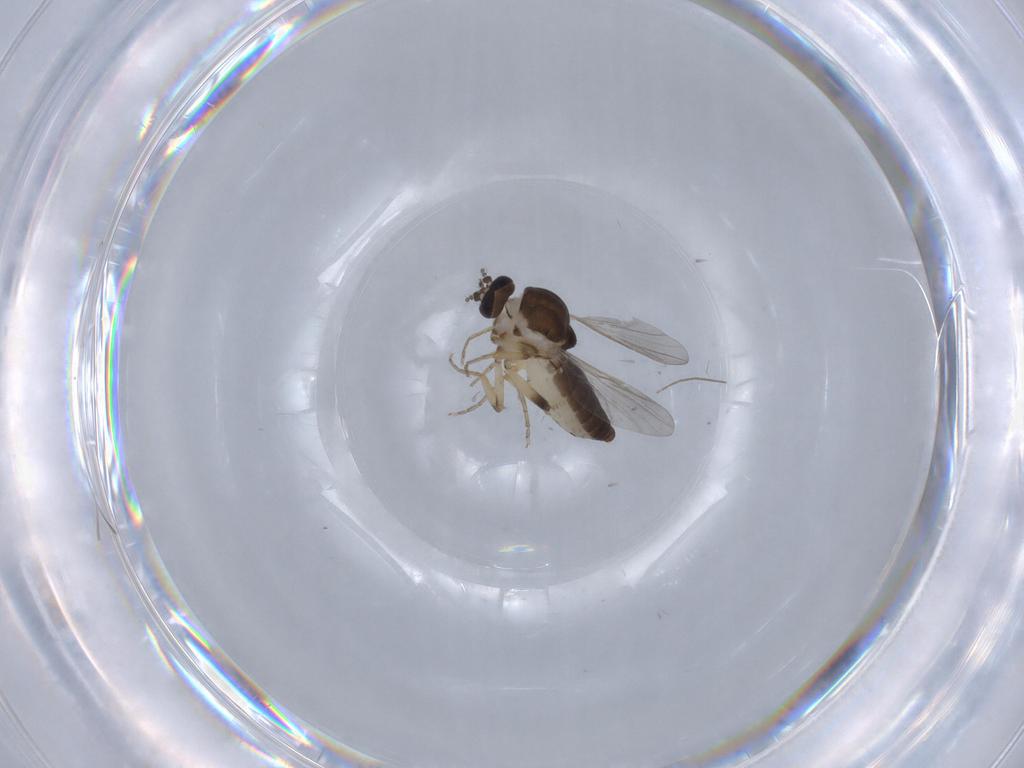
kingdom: Animalia
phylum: Arthropoda
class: Insecta
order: Diptera
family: Ceratopogonidae
